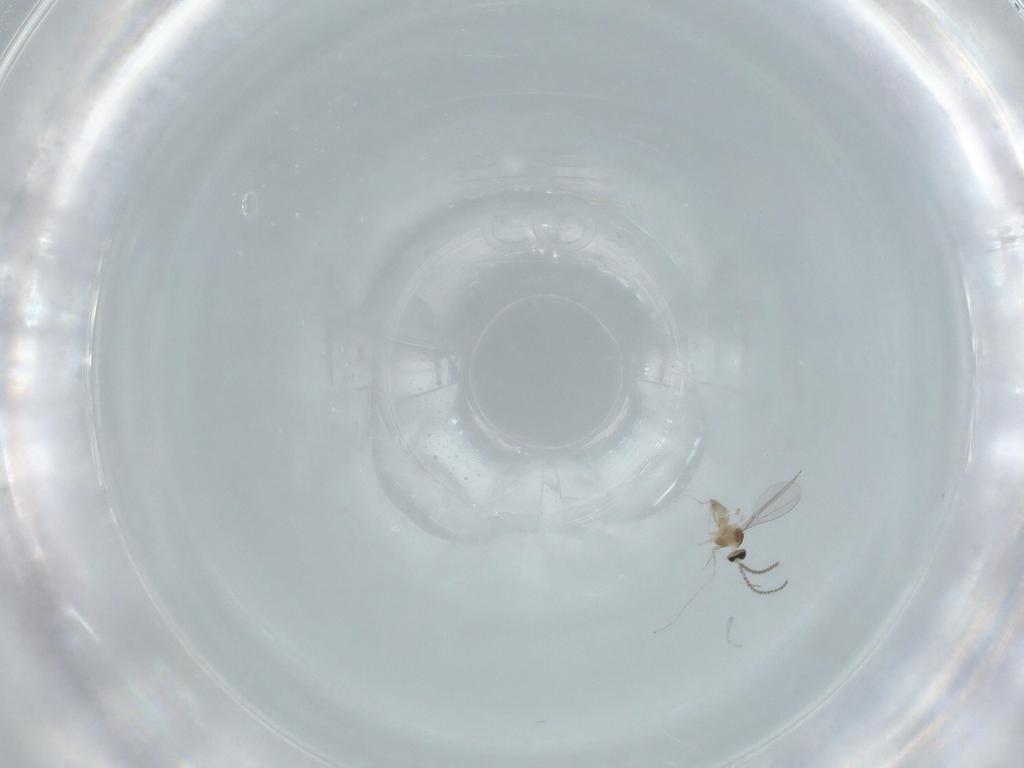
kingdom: Animalia
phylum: Arthropoda
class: Insecta
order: Diptera
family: Cecidomyiidae
